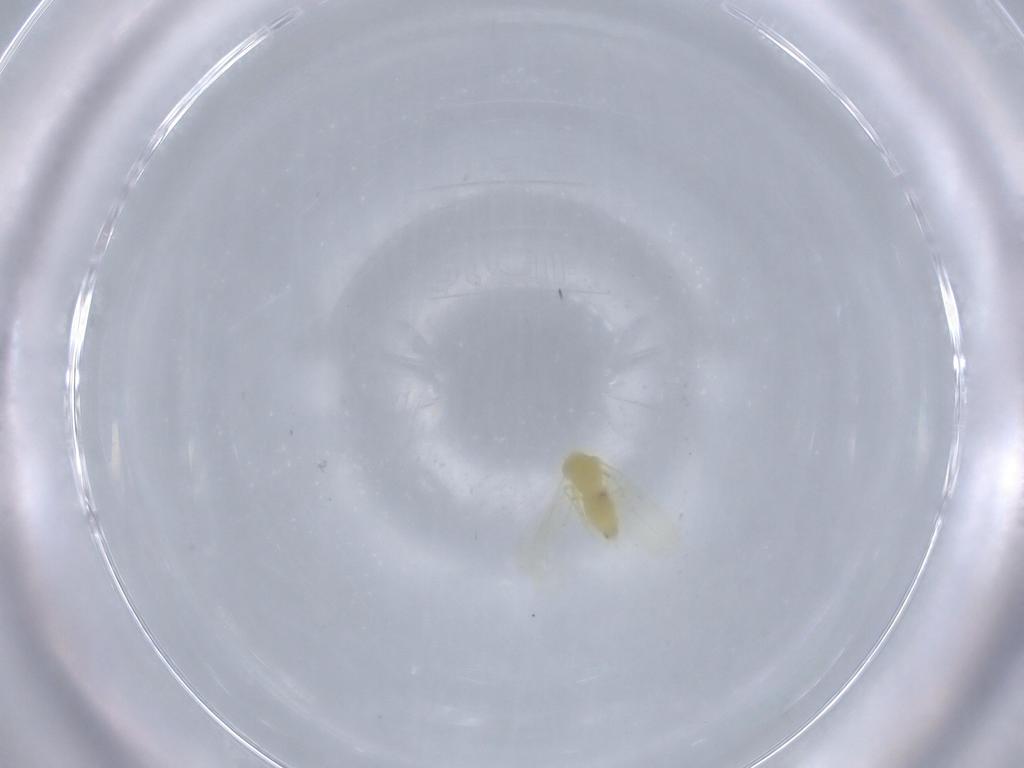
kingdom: Animalia
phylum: Arthropoda
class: Insecta
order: Hemiptera
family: Aleyrodidae
